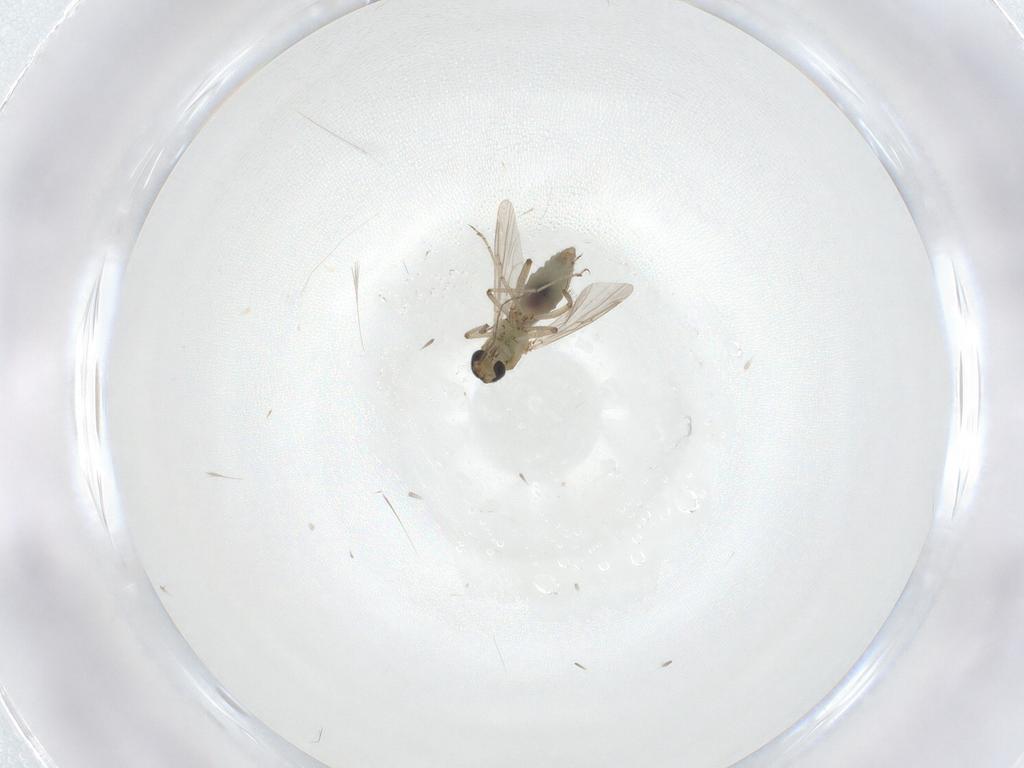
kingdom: Animalia
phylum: Arthropoda
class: Insecta
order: Diptera
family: Ceratopogonidae
